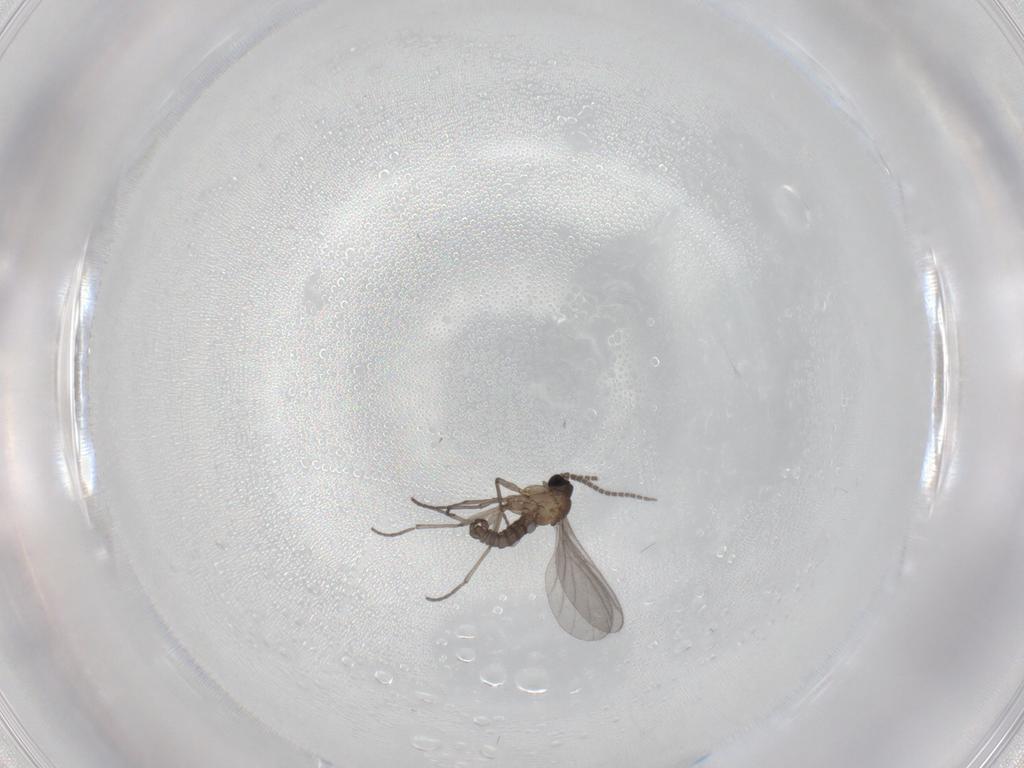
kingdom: Animalia
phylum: Arthropoda
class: Insecta
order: Diptera
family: Sciaridae
